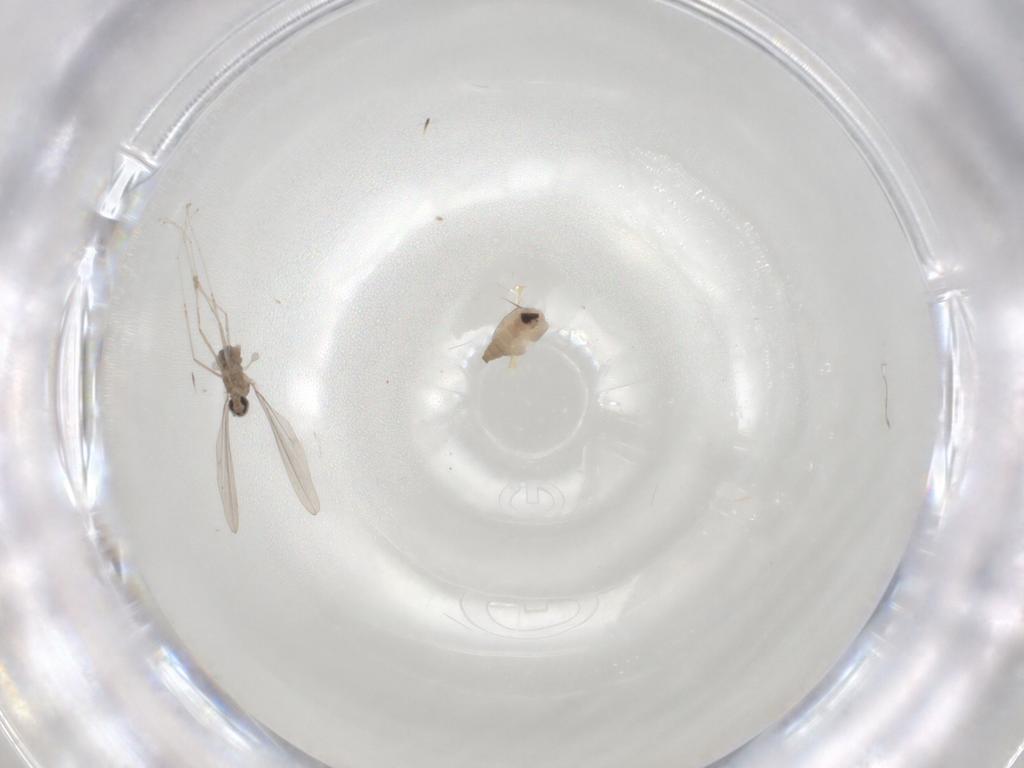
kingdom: Animalia
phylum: Arthropoda
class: Insecta
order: Diptera
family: Cecidomyiidae
